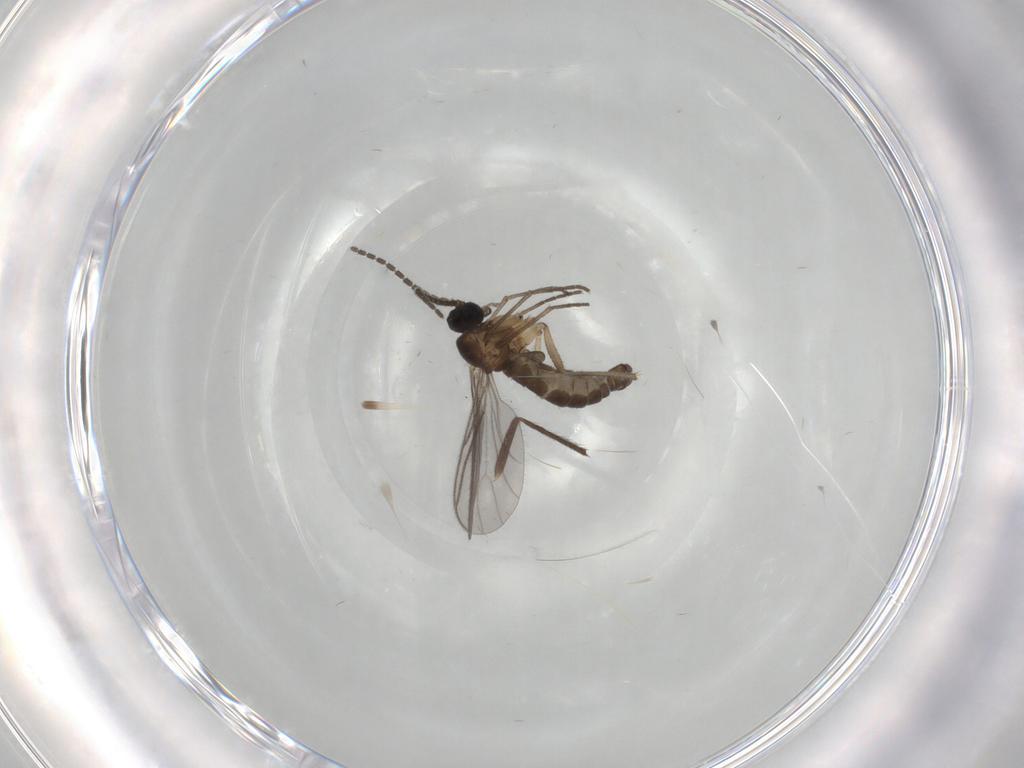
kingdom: Animalia
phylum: Arthropoda
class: Insecta
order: Diptera
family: Sciaridae
